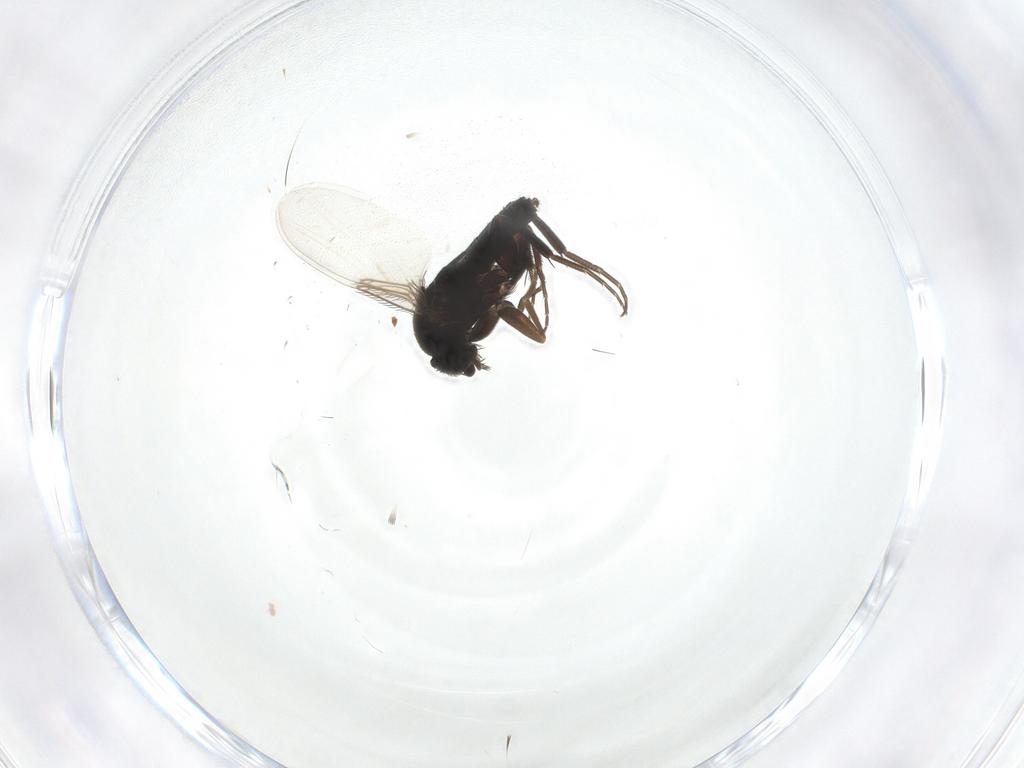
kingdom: Animalia
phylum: Arthropoda
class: Insecta
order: Diptera
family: Phoridae
